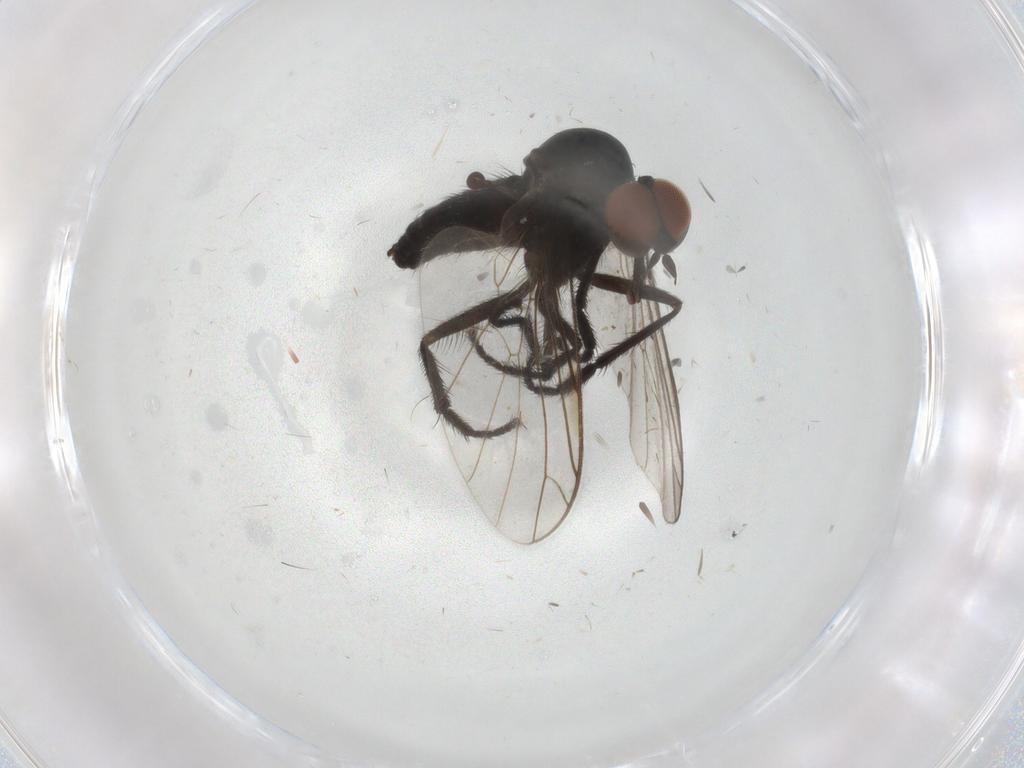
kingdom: Animalia
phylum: Arthropoda
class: Insecta
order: Diptera
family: Empididae
